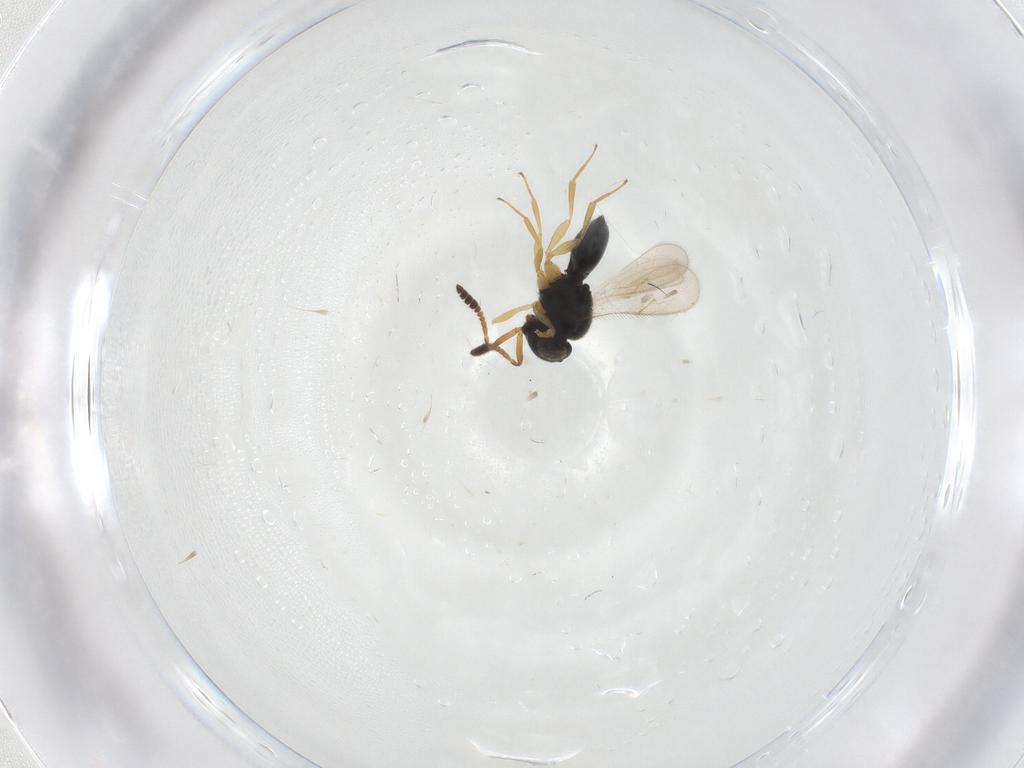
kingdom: Animalia
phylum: Arthropoda
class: Insecta
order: Hymenoptera
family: Scelionidae
